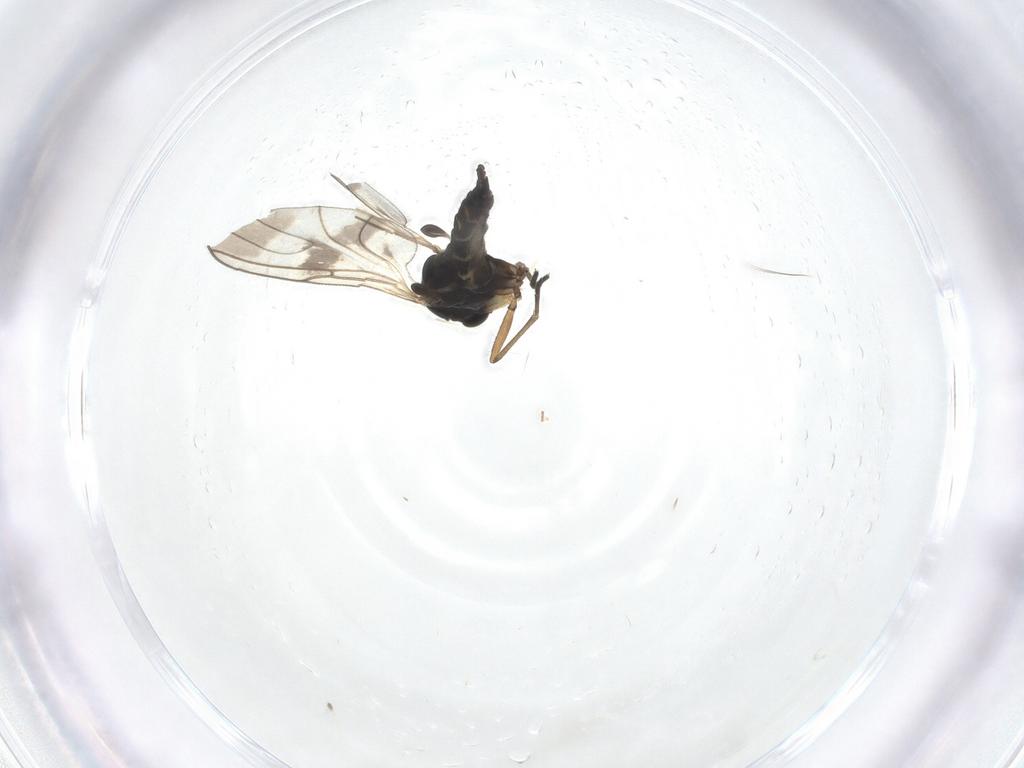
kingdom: Animalia
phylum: Arthropoda
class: Insecta
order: Diptera
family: Sciaridae
